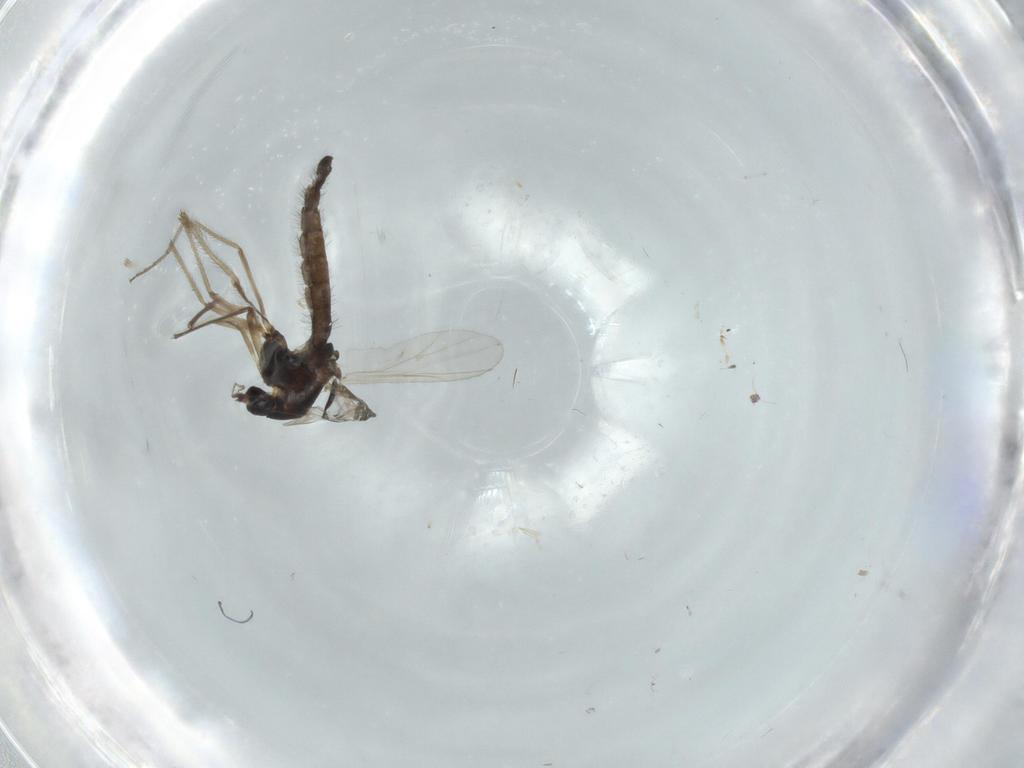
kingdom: Animalia
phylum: Arthropoda
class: Insecta
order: Diptera
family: Chironomidae
